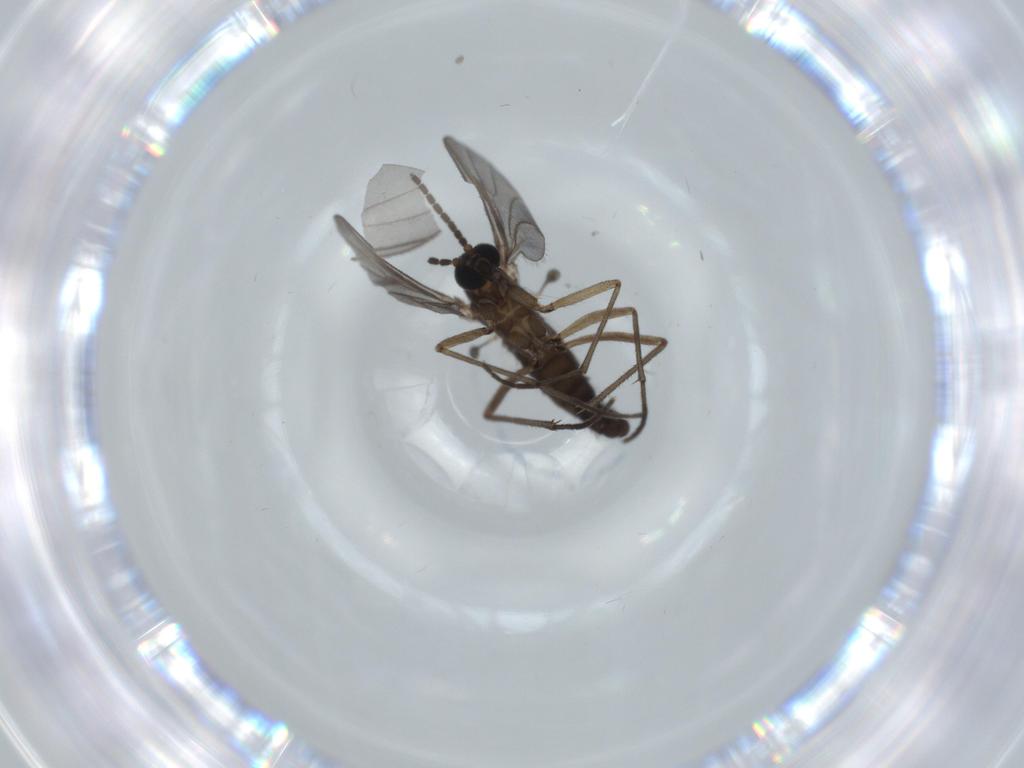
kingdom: Animalia
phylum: Arthropoda
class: Insecta
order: Diptera
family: Sciaridae
